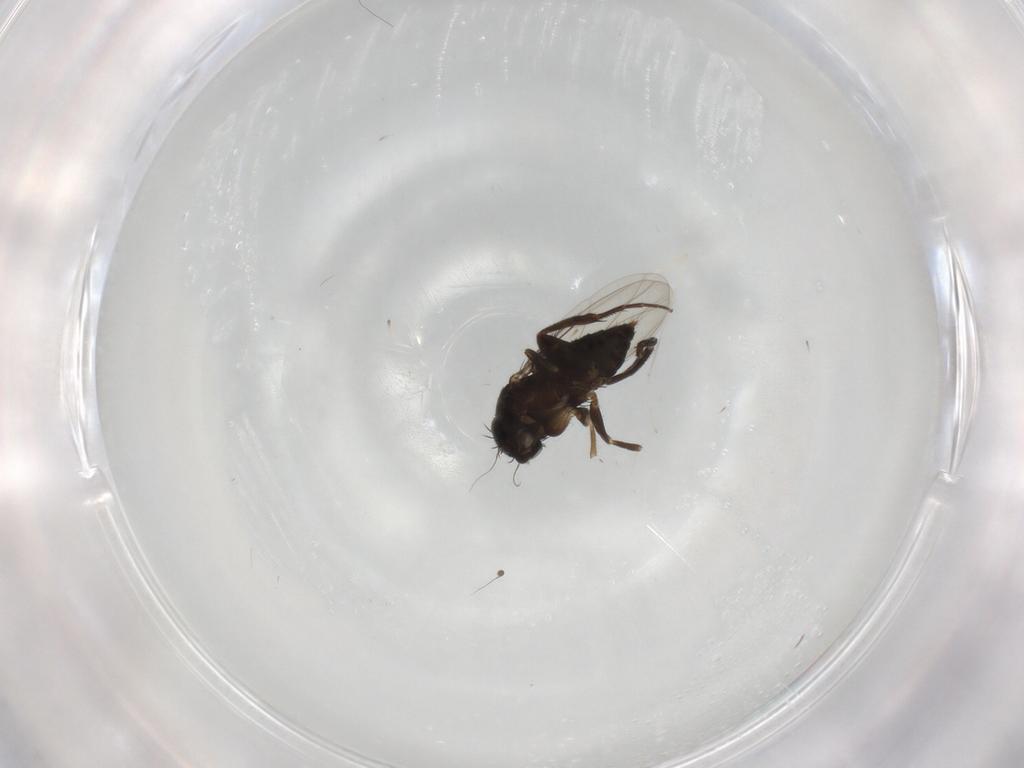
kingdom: Animalia
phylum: Arthropoda
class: Insecta
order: Diptera
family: Phoridae
